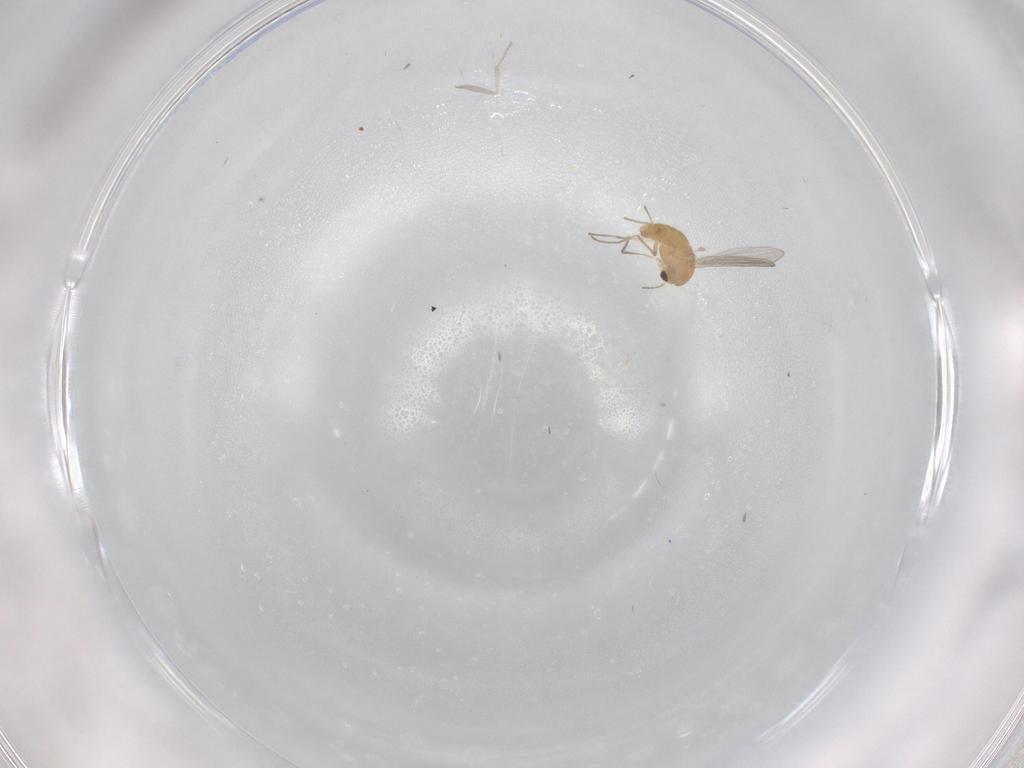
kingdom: Animalia
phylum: Arthropoda
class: Insecta
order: Diptera
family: Chironomidae
